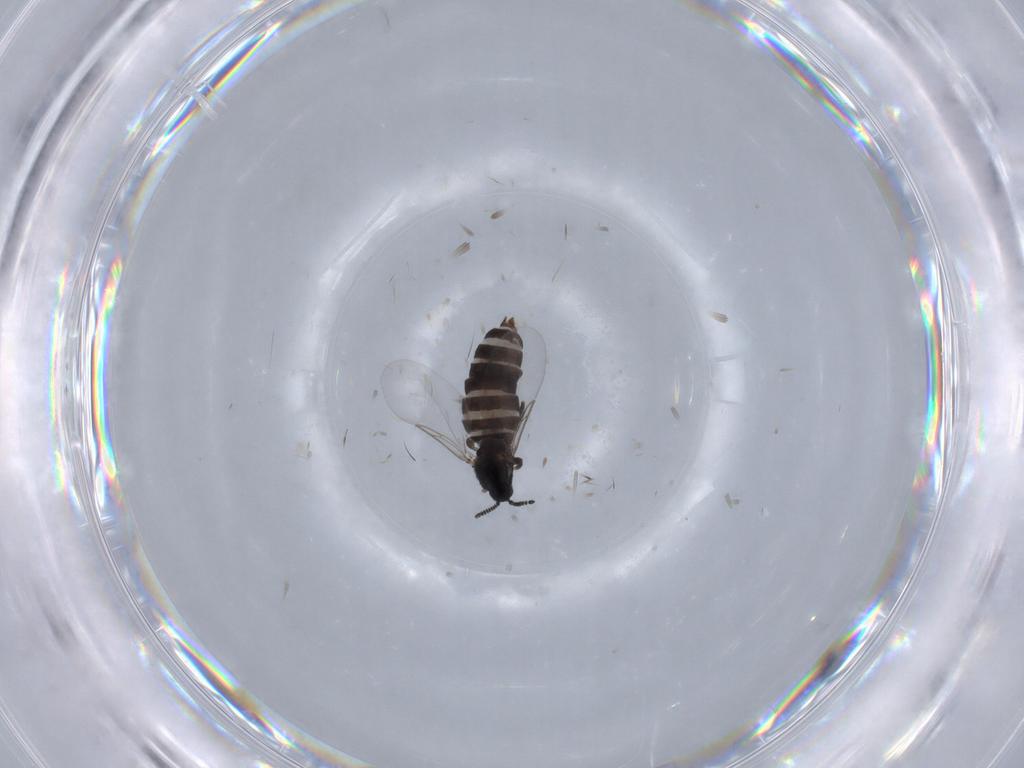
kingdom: Animalia
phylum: Arthropoda
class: Insecta
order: Diptera
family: Scatopsidae
